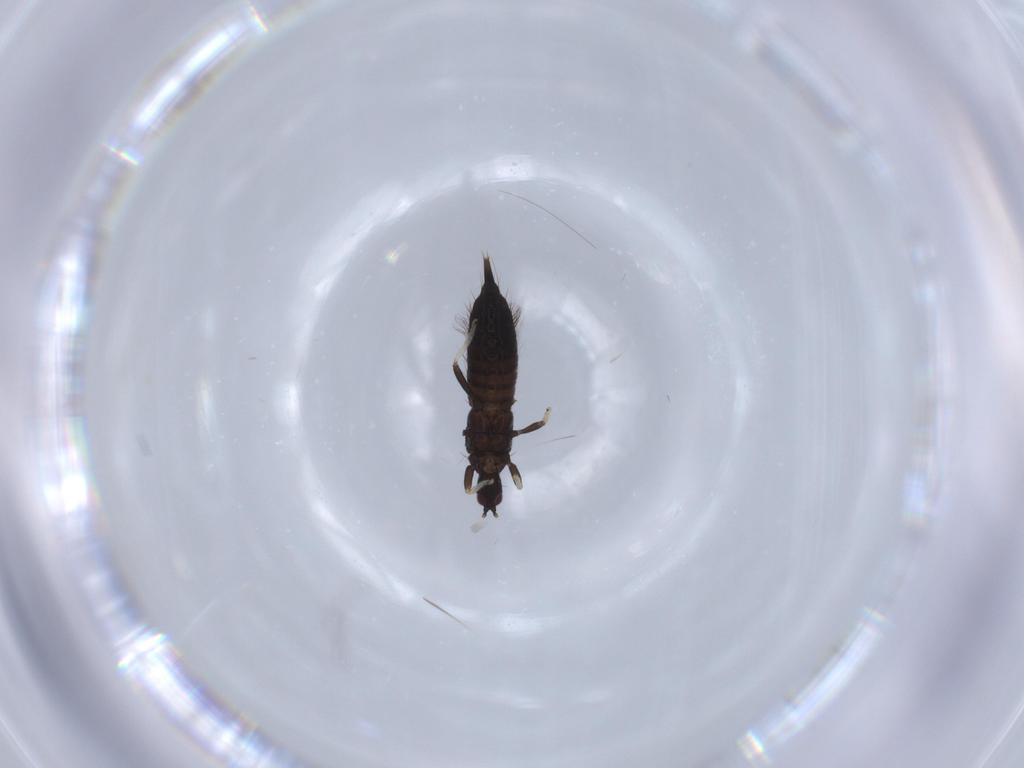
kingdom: Animalia
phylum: Arthropoda
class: Insecta
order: Thysanoptera
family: Phlaeothripidae
